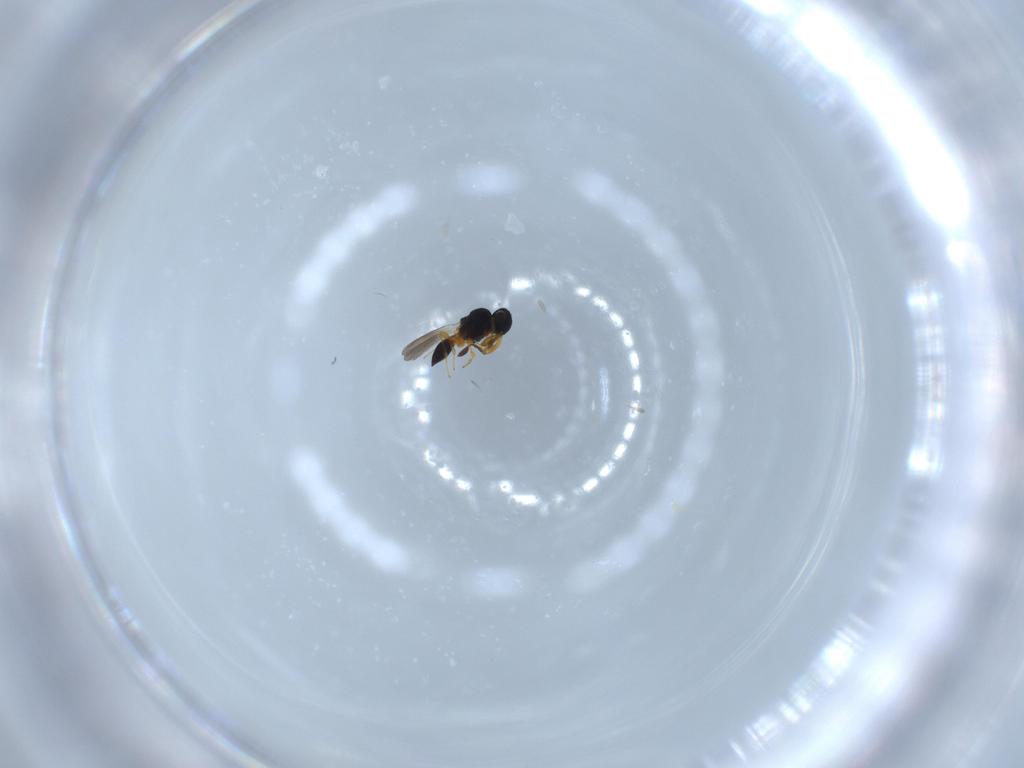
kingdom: Animalia
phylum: Arthropoda
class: Insecta
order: Hymenoptera
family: Platygastridae
